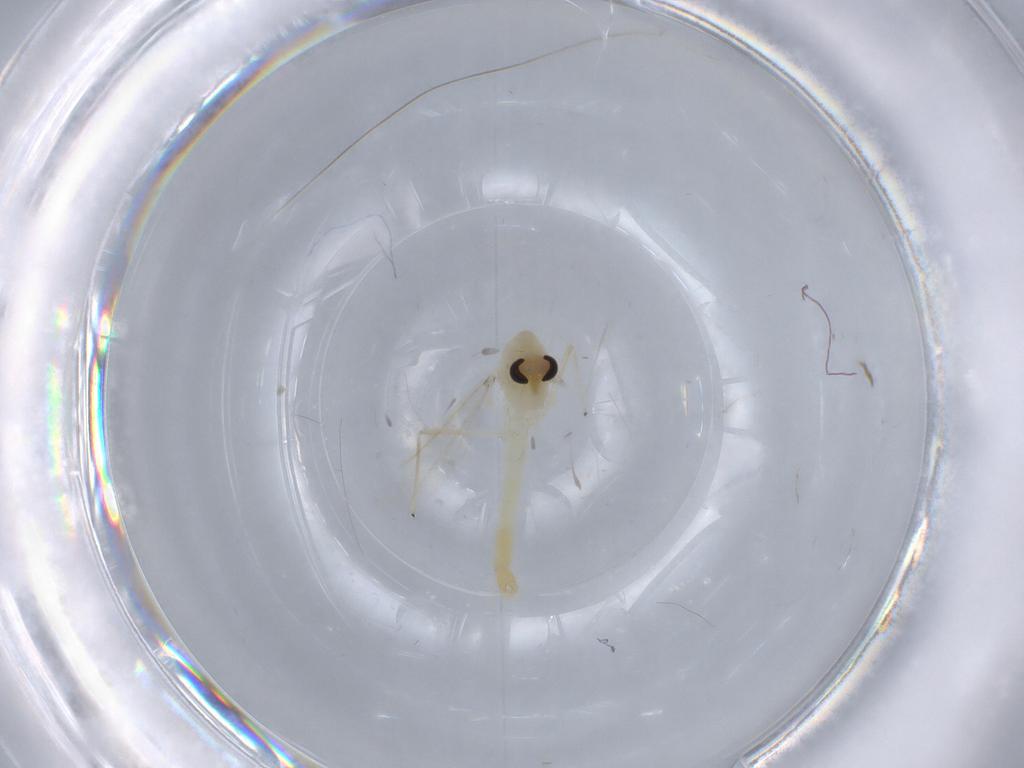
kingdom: Animalia
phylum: Arthropoda
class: Insecta
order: Diptera
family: Chironomidae
